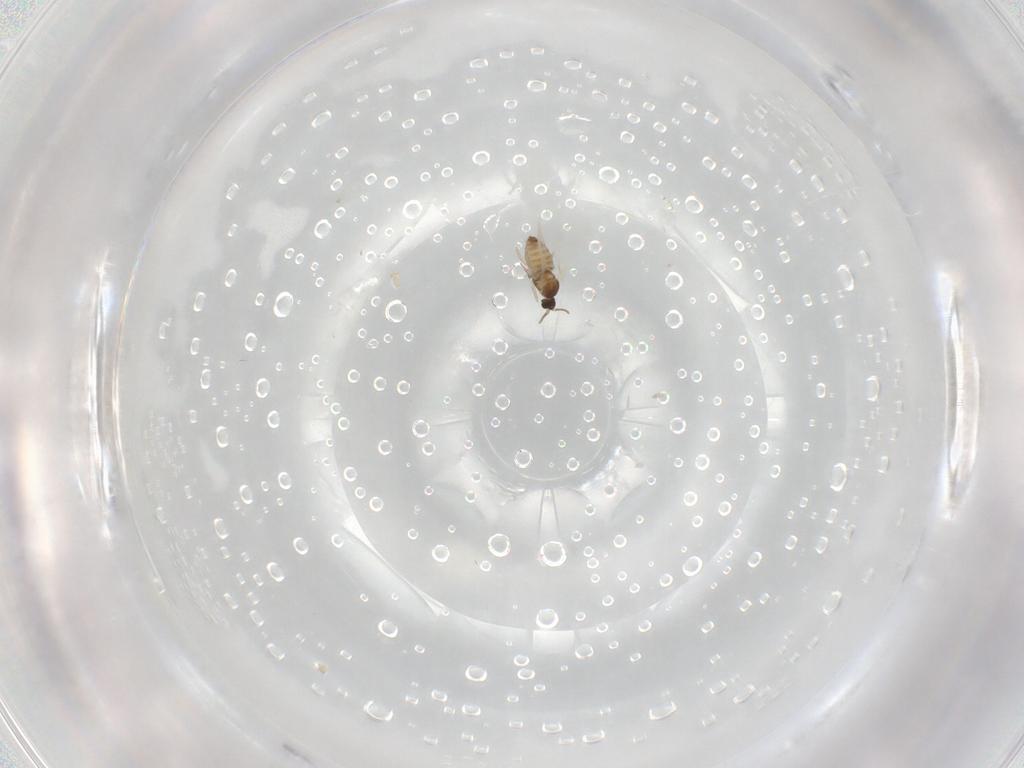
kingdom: Animalia
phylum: Arthropoda
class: Insecta
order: Diptera
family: Cecidomyiidae
